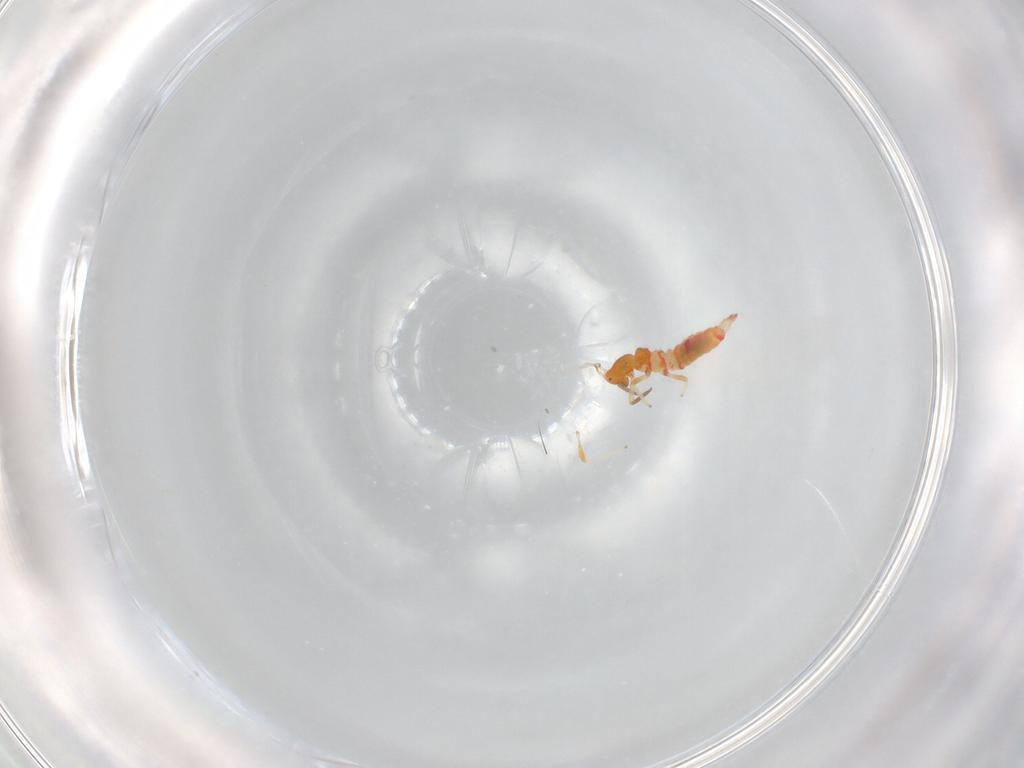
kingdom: Animalia
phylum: Arthropoda
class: Insecta
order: Thysanoptera
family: Aeolothripidae
